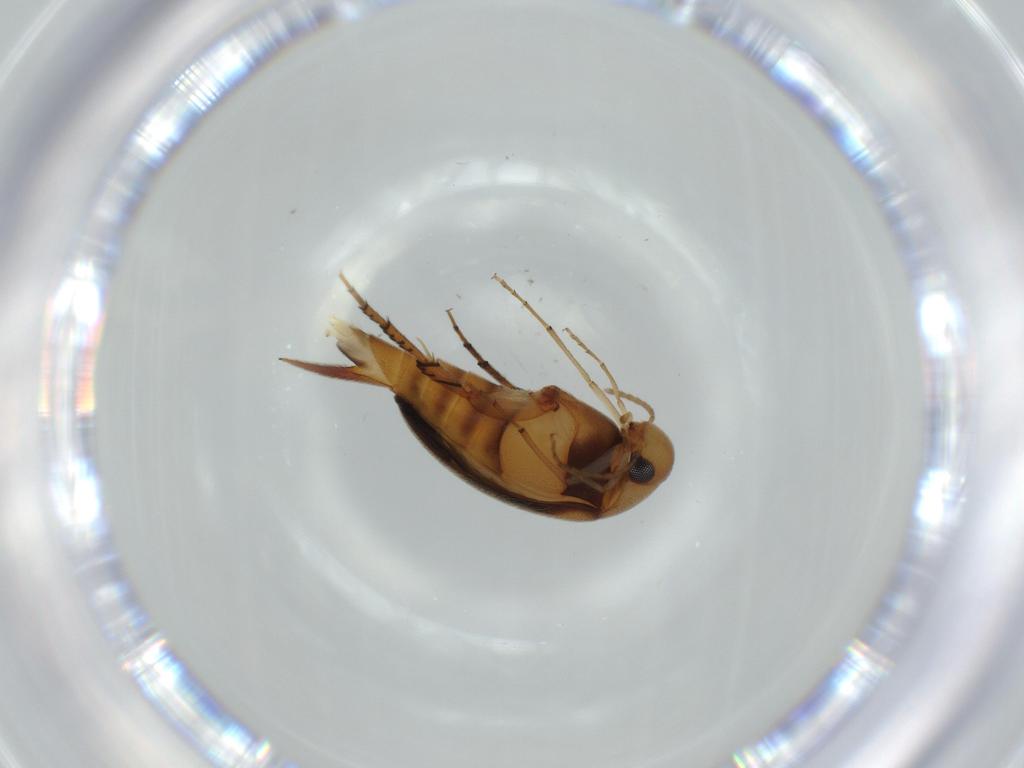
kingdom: Animalia
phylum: Arthropoda
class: Insecta
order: Coleoptera
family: Mordellidae
